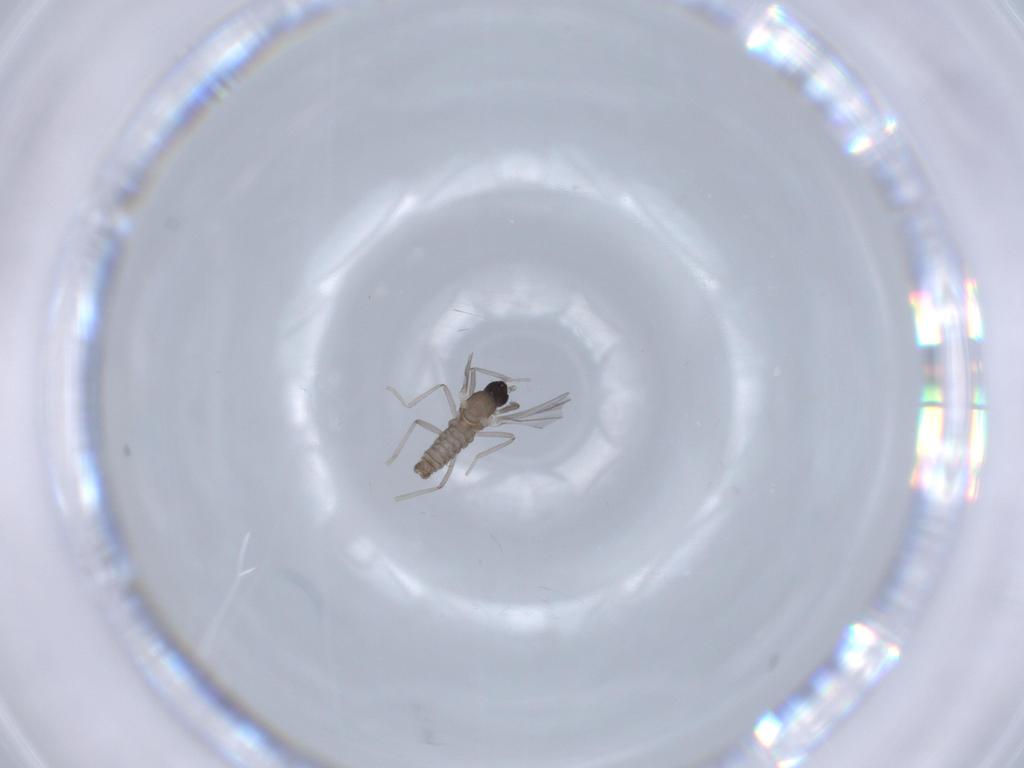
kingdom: Animalia
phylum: Arthropoda
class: Insecta
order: Diptera
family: Cecidomyiidae
